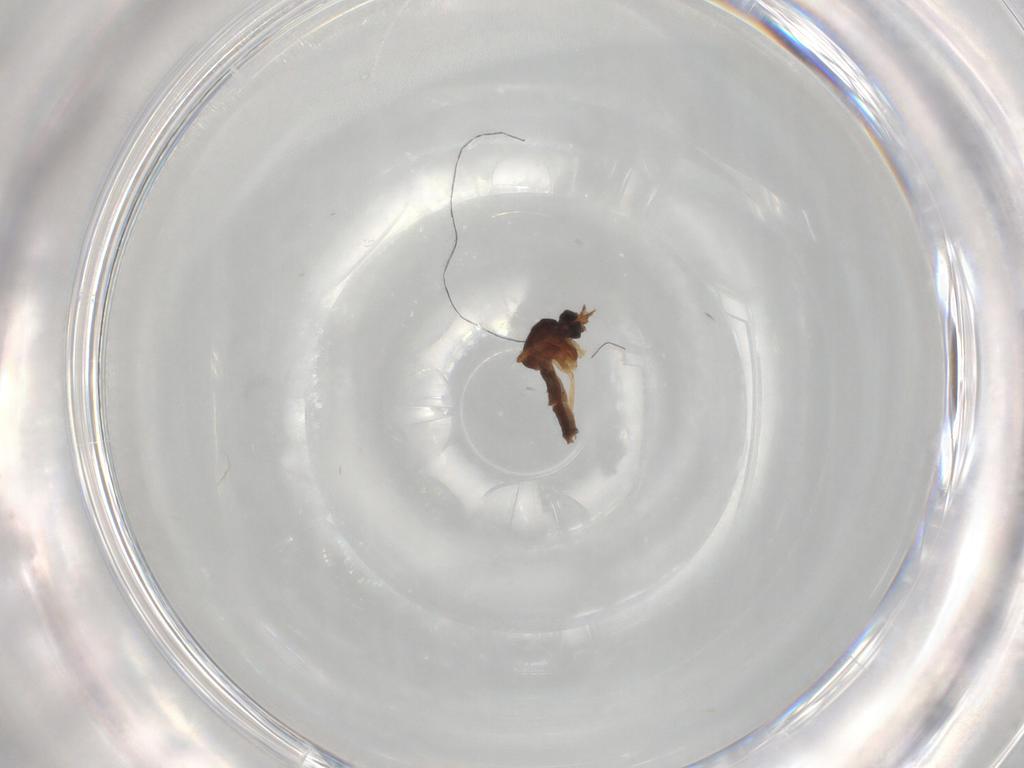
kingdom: Animalia
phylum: Arthropoda
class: Insecta
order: Diptera
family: Ceratopogonidae
